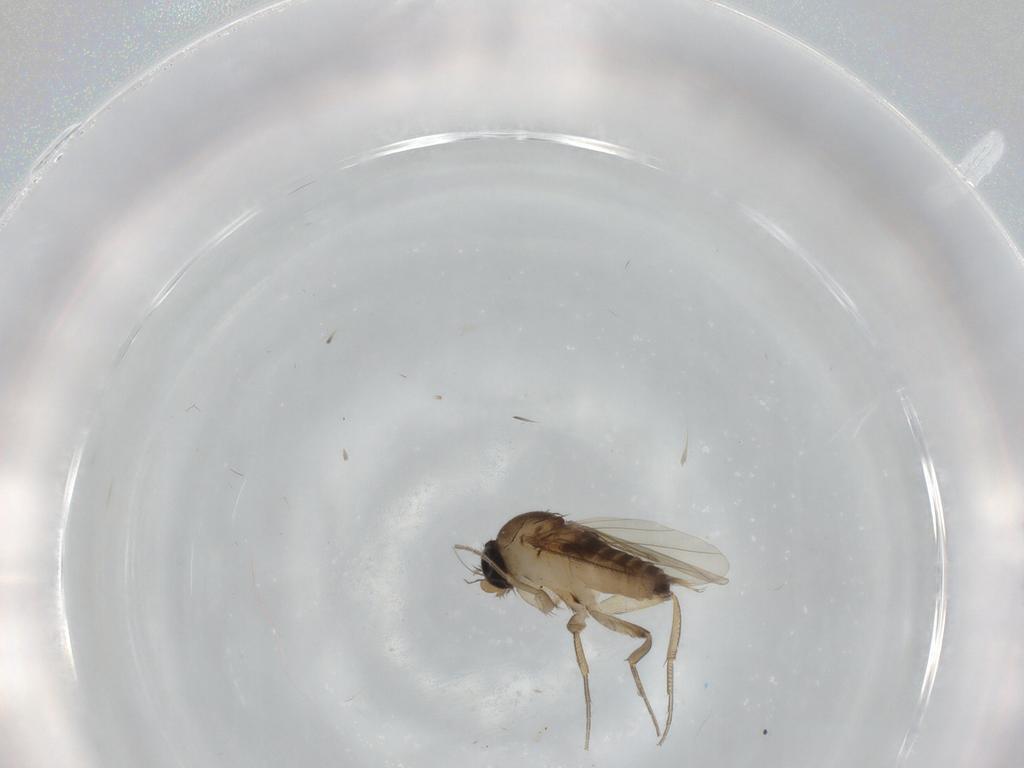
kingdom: Animalia
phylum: Arthropoda
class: Insecta
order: Diptera
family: Phoridae
